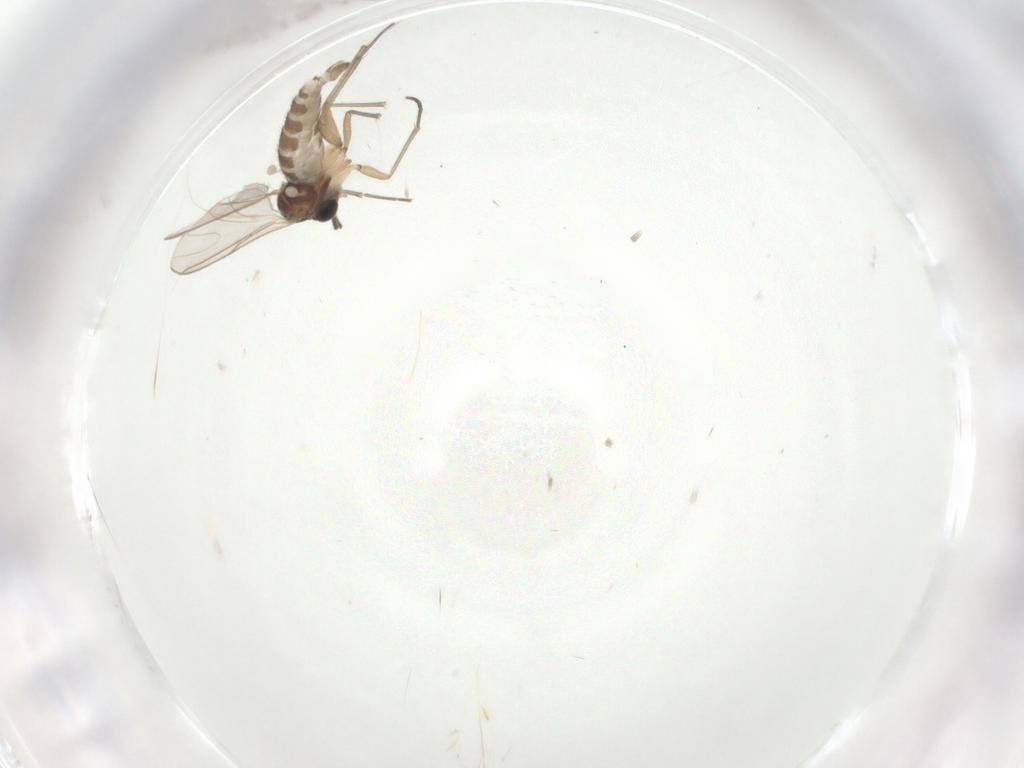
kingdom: Animalia
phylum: Arthropoda
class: Insecta
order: Diptera
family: Sciaridae
